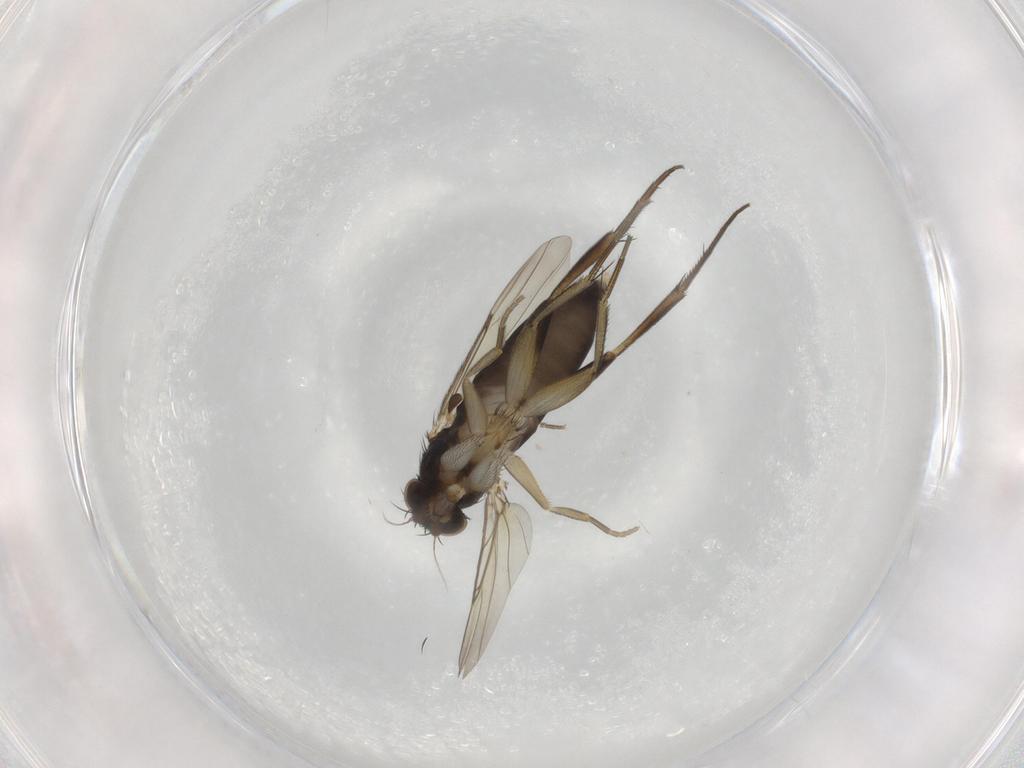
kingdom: Animalia
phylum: Arthropoda
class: Insecta
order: Diptera
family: Phoridae
